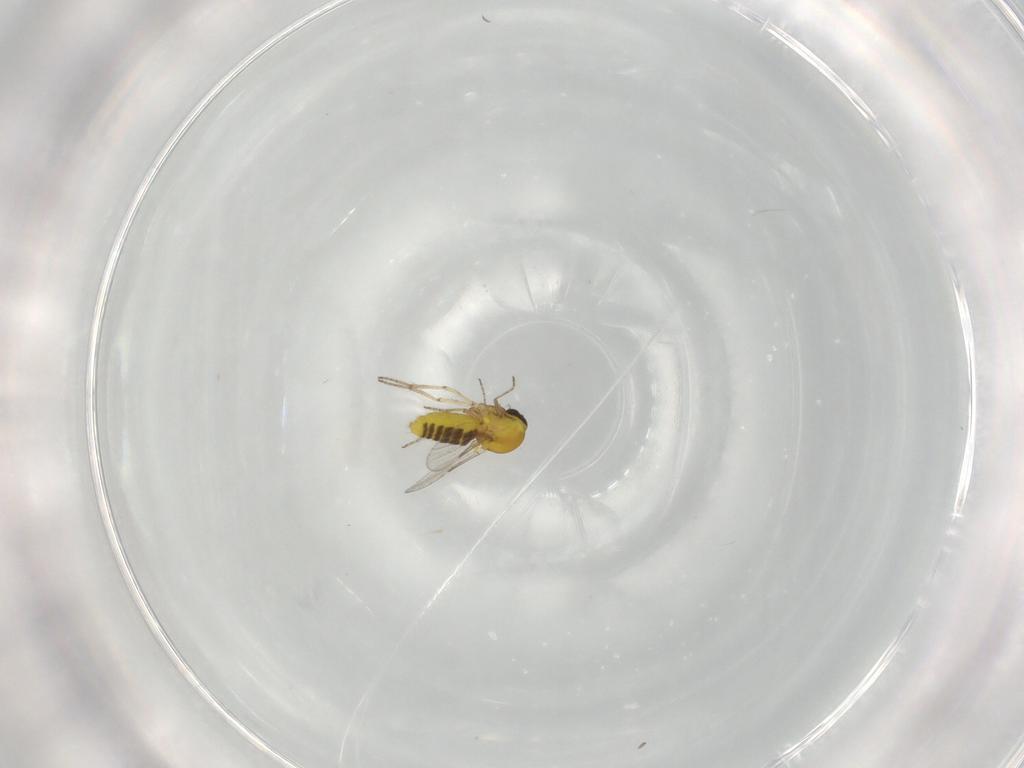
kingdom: Animalia
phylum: Arthropoda
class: Insecta
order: Diptera
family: Ceratopogonidae
